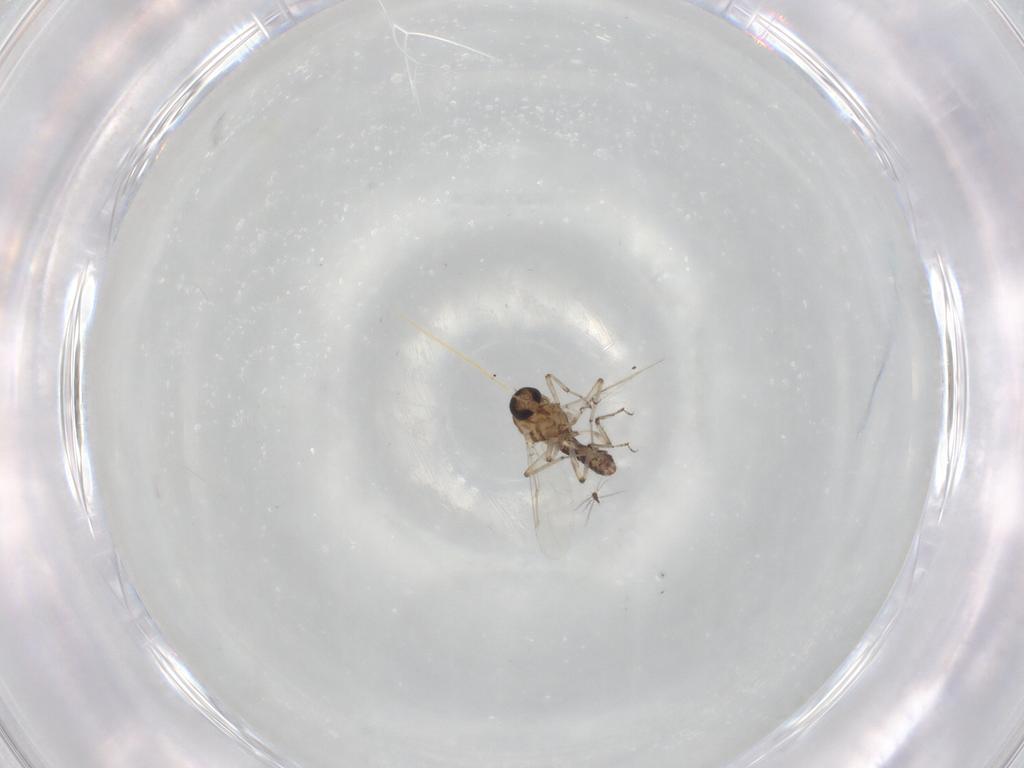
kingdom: Animalia
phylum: Arthropoda
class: Insecta
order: Diptera
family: Ceratopogonidae
